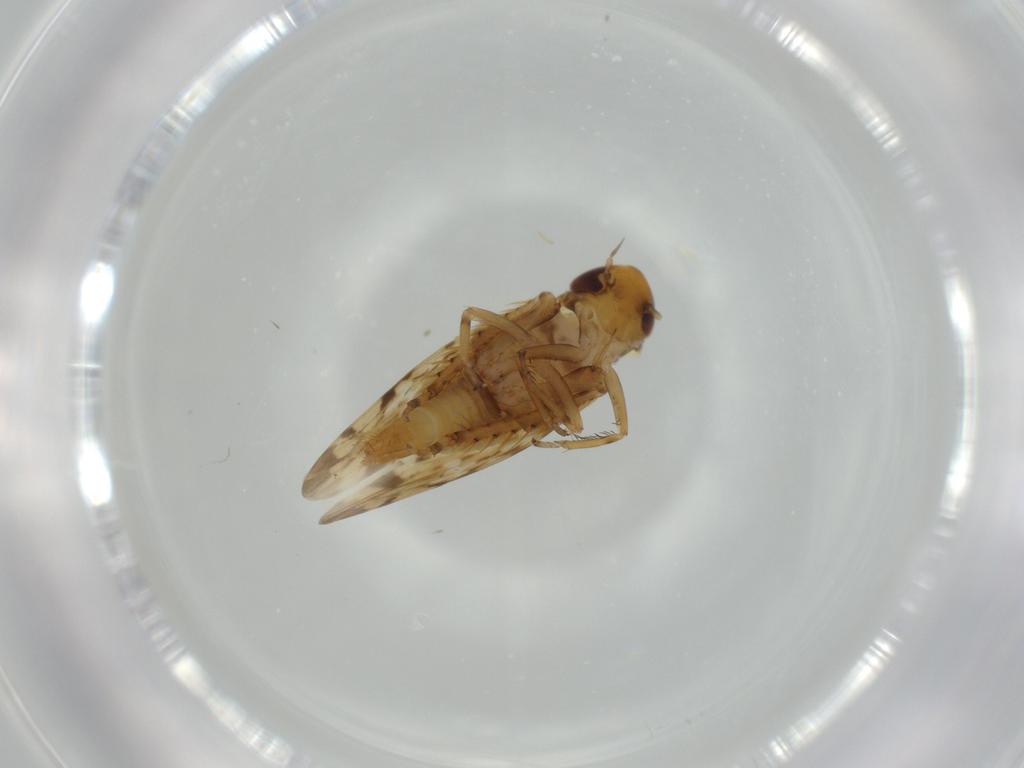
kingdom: Animalia
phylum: Arthropoda
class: Insecta
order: Hemiptera
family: Cicadellidae
